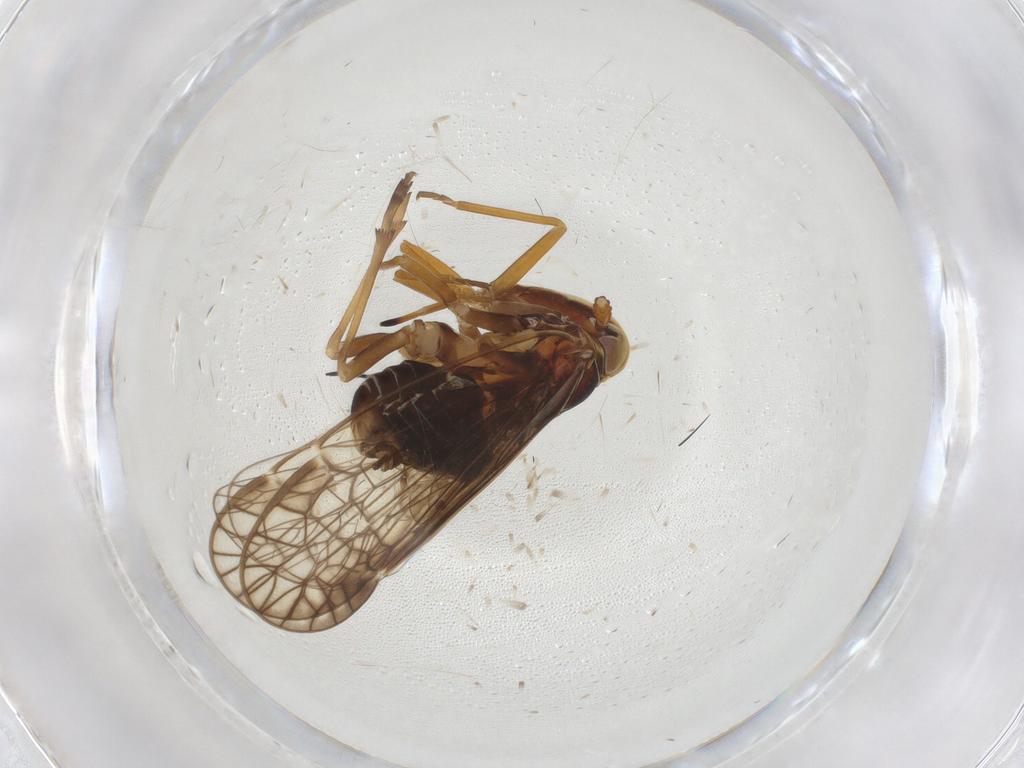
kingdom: Animalia
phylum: Arthropoda
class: Insecta
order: Hemiptera
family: Kinnaridae
